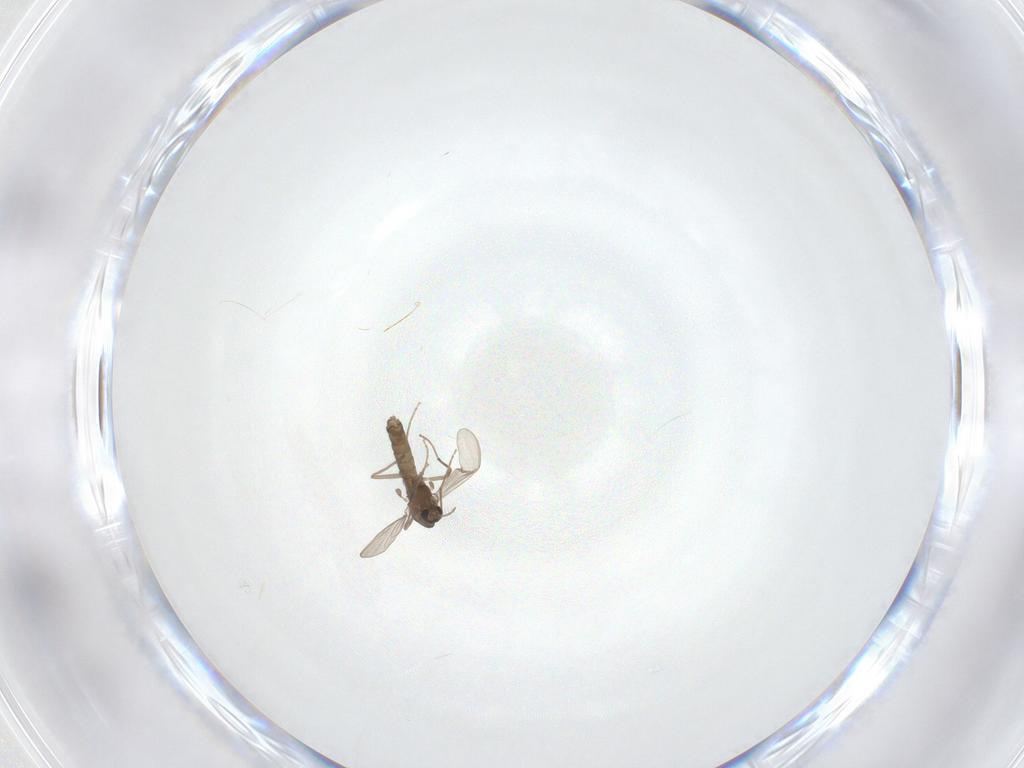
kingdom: Animalia
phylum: Arthropoda
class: Insecta
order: Diptera
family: Chironomidae
